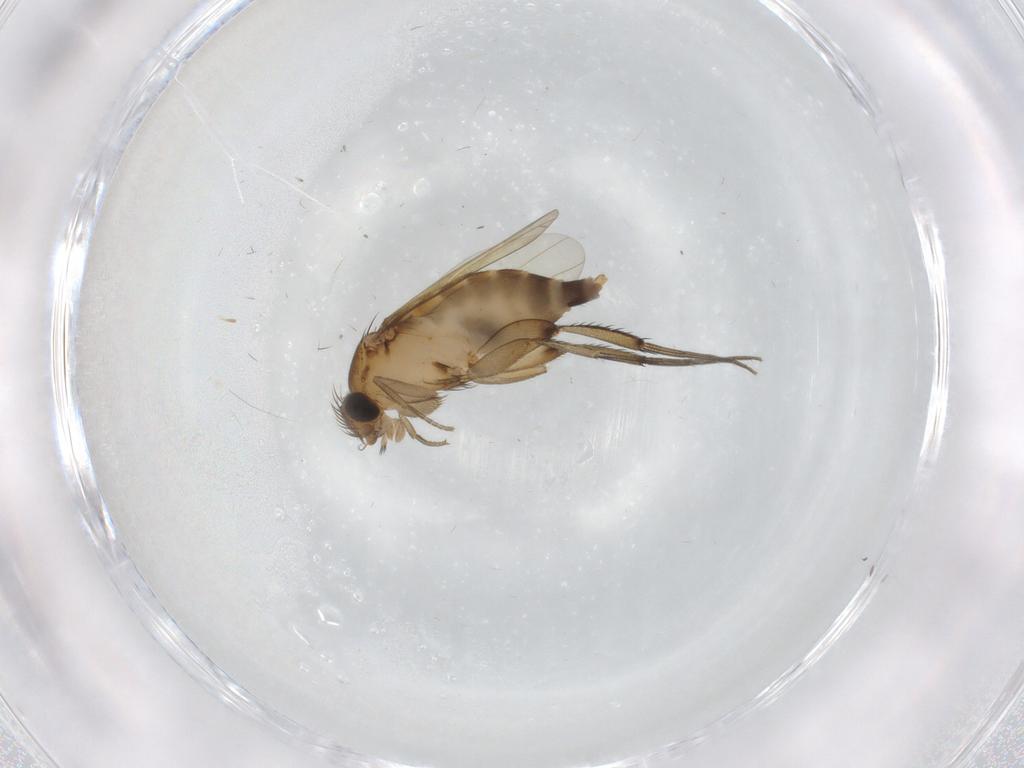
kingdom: Animalia
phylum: Arthropoda
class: Insecta
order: Diptera
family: Phoridae
